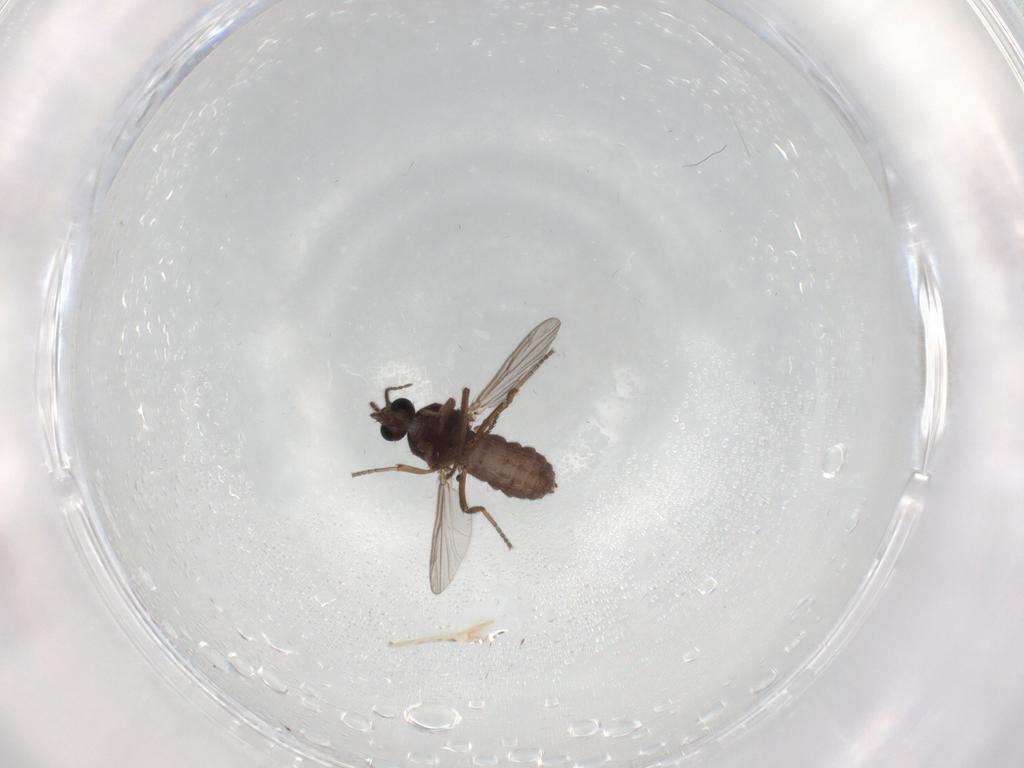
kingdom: Animalia
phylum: Arthropoda
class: Insecta
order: Diptera
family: Ceratopogonidae
